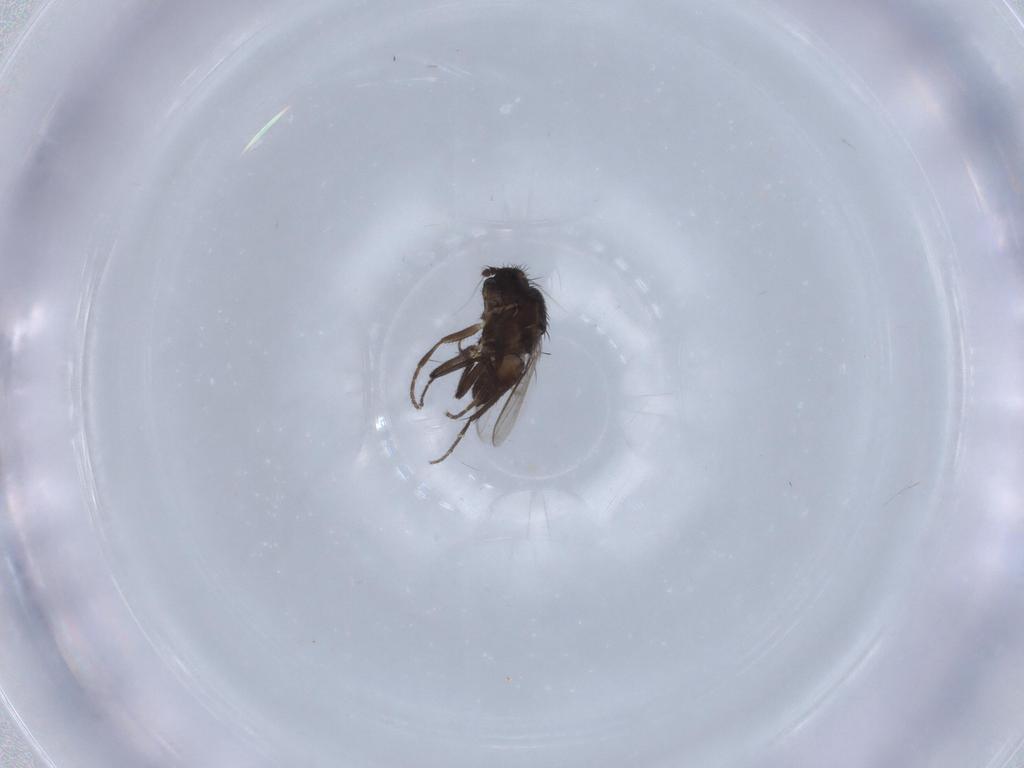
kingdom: Animalia
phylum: Arthropoda
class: Insecta
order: Diptera
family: Sphaeroceridae
